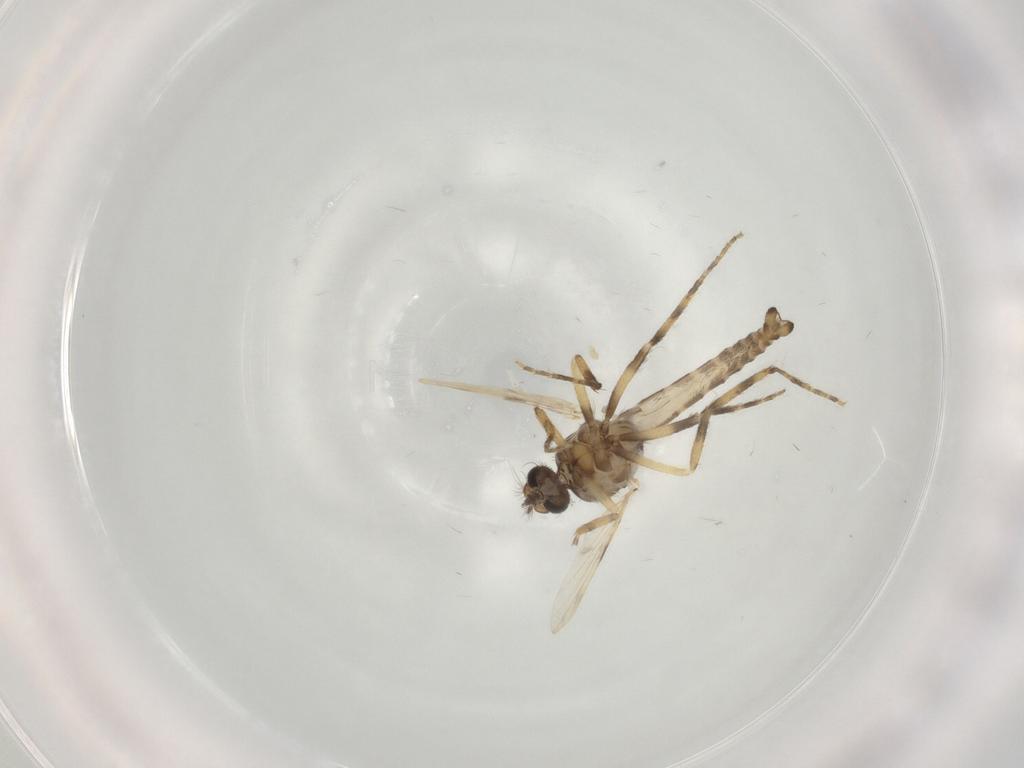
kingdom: Animalia
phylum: Arthropoda
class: Insecta
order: Diptera
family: Ceratopogonidae
